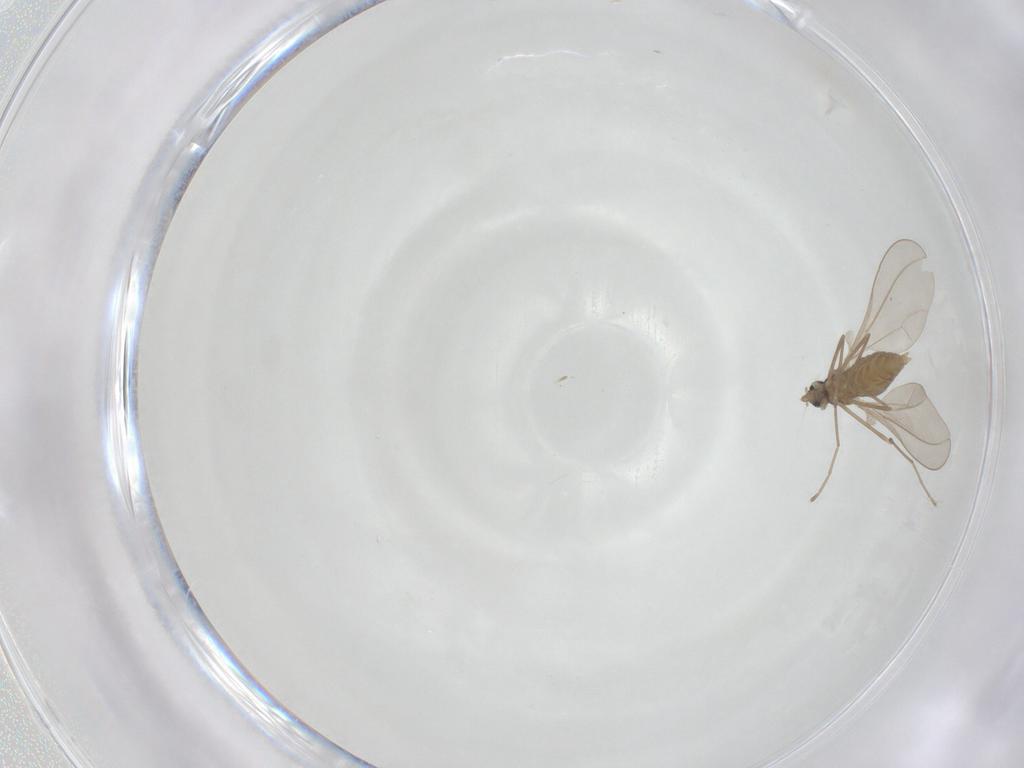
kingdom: Animalia
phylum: Arthropoda
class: Insecta
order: Diptera
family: Cecidomyiidae
